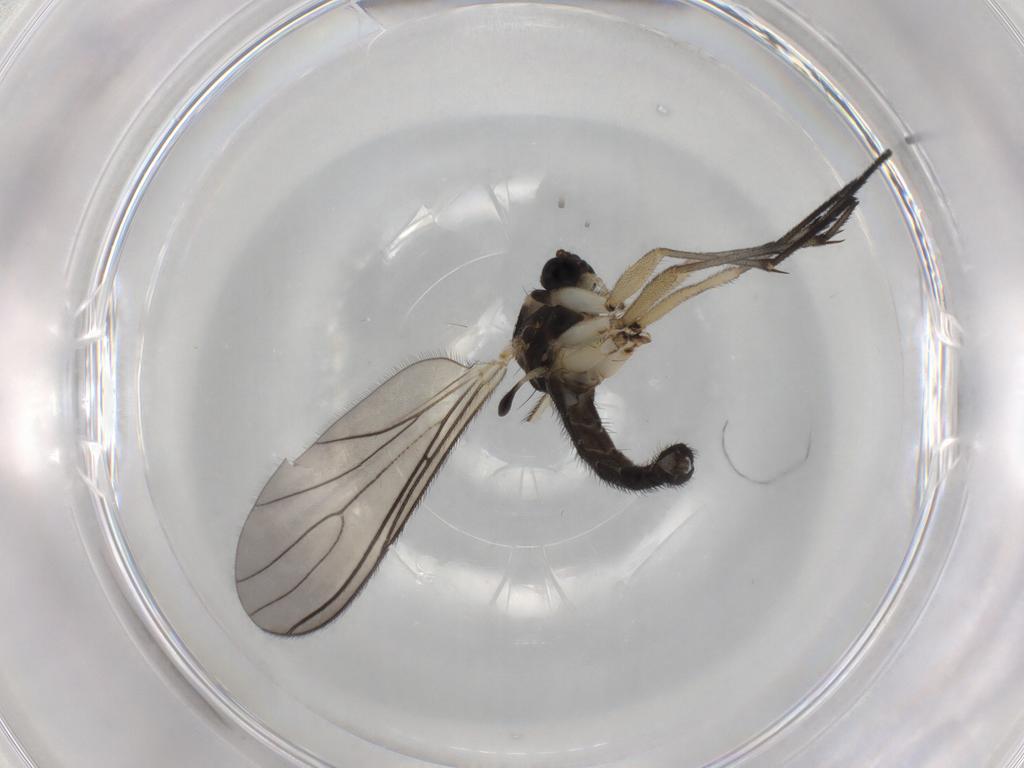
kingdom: Animalia
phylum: Arthropoda
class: Insecta
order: Diptera
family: Sciaridae
